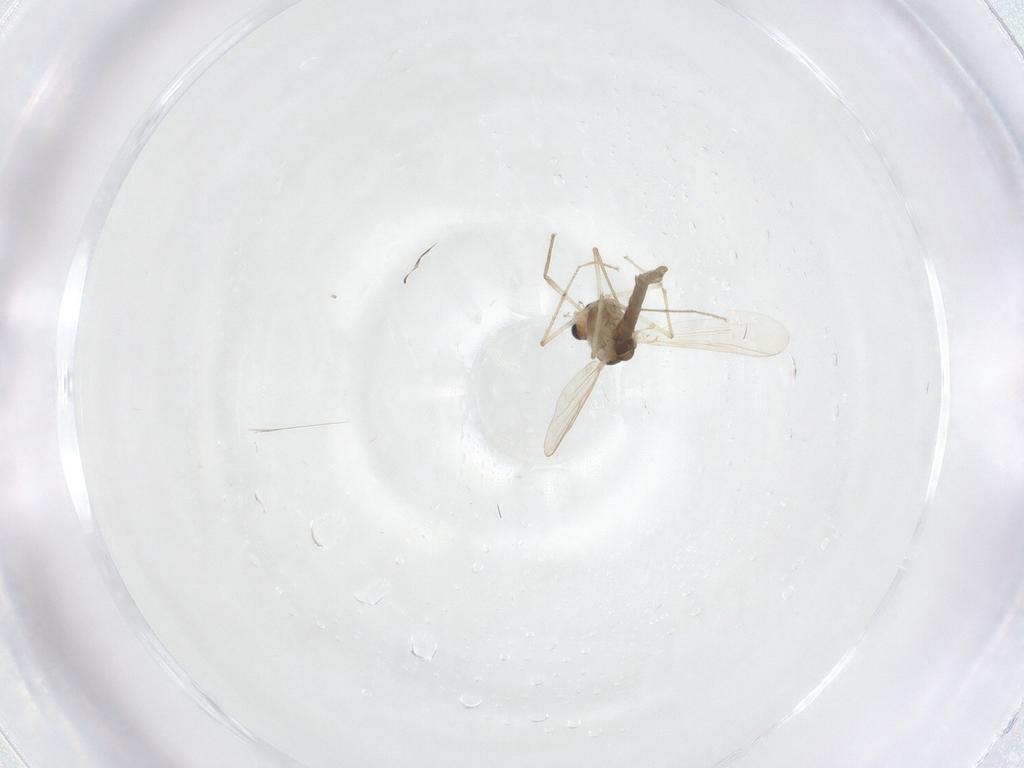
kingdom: Animalia
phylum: Arthropoda
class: Insecta
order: Diptera
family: Chironomidae
